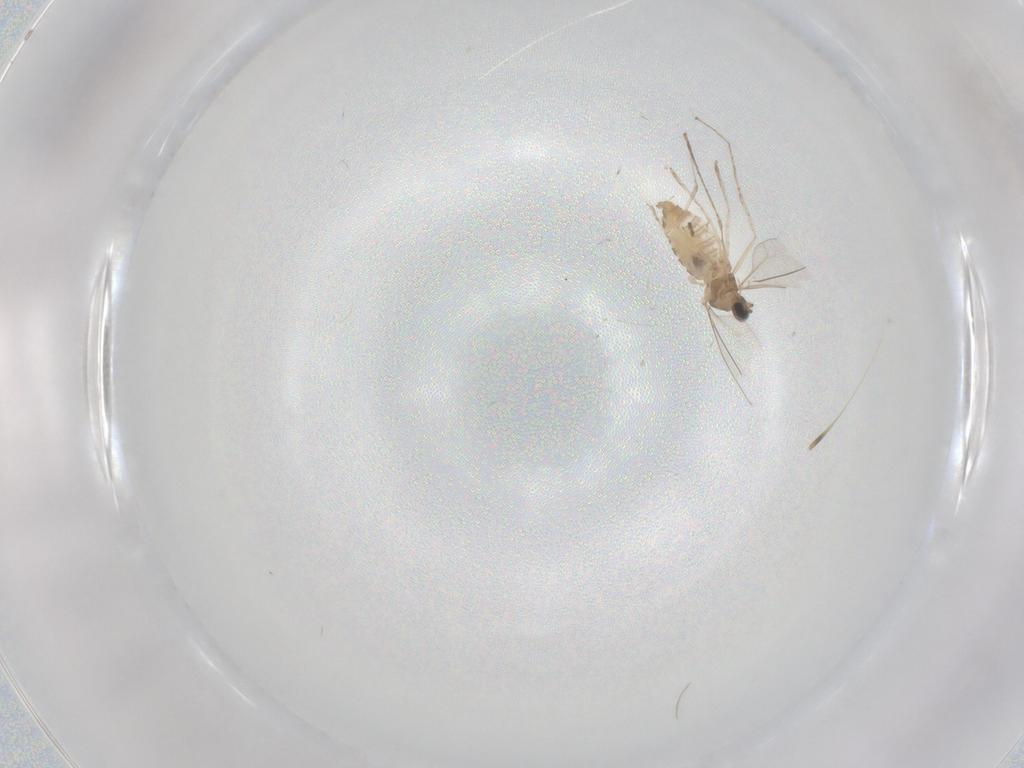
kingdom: Animalia
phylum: Arthropoda
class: Insecta
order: Diptera
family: Cecidomyiidae
